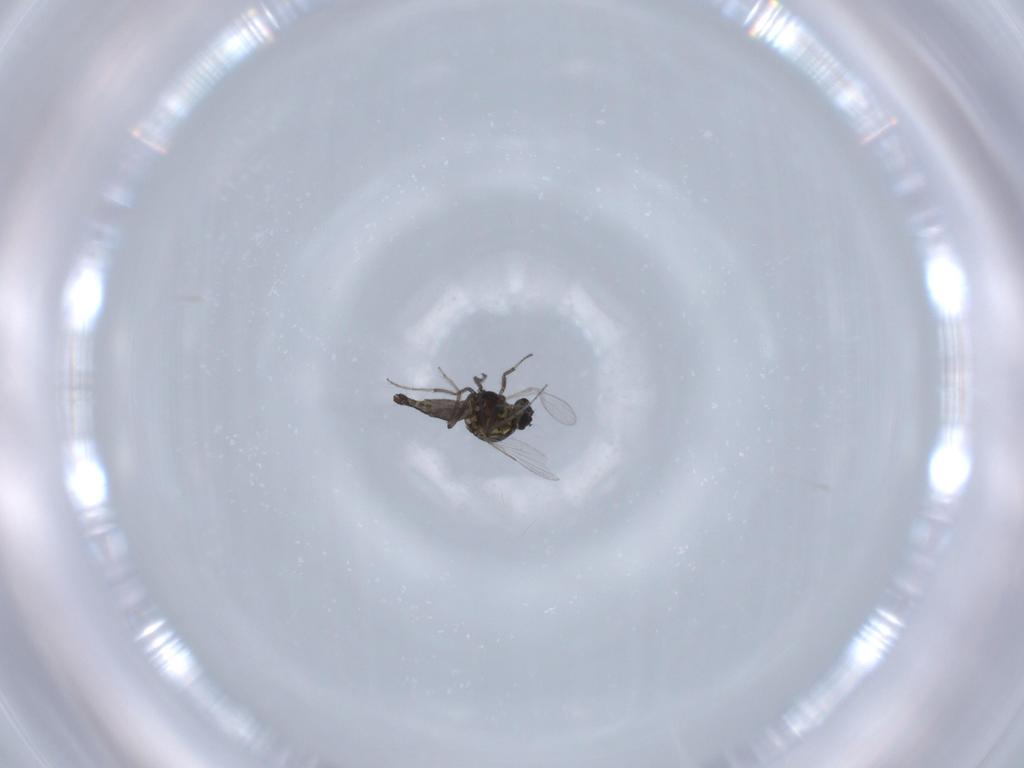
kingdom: Animalia
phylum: Arthropoda
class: Insecta
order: Diptera
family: Ceratopogonidae
